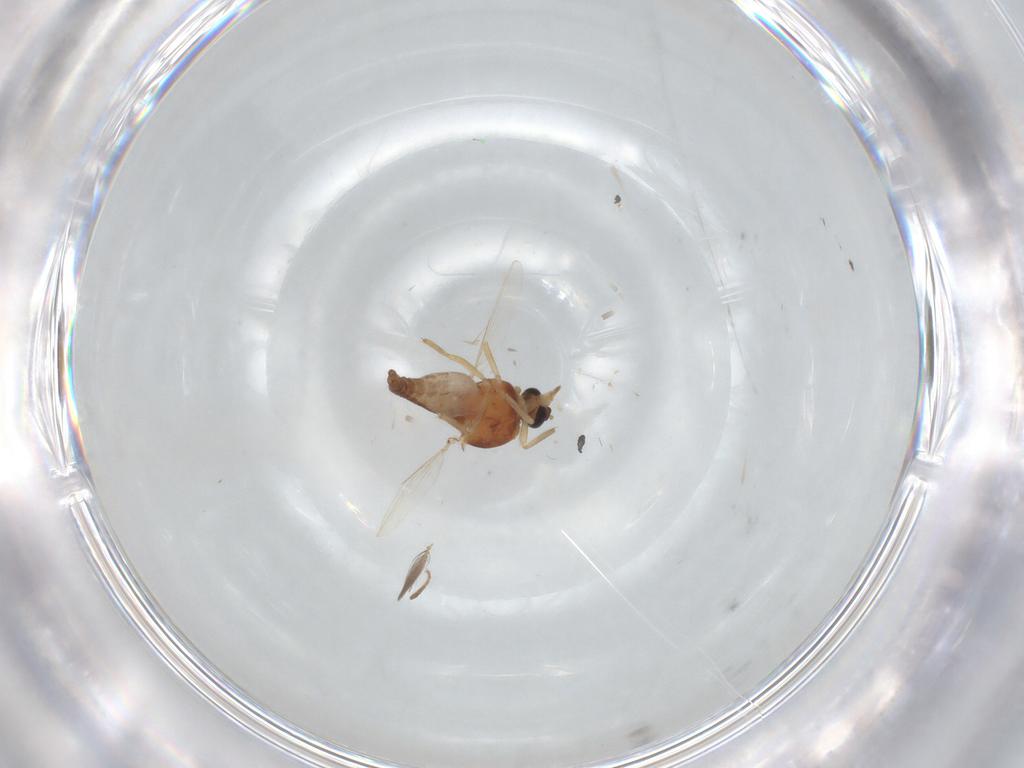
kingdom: Animalia
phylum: Arthropoda
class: Insecta
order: Diptera
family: Ceratopogonidae
